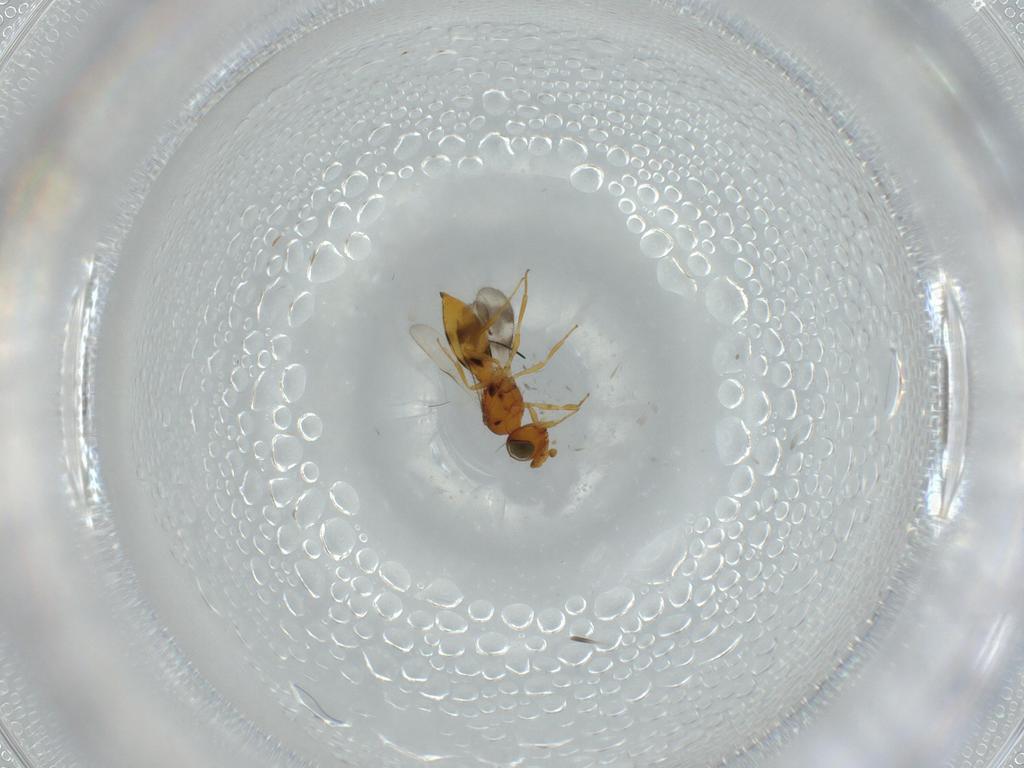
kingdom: Animalia
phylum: Arthropoda
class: Insecta
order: Hymenoptera
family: Scelionidae
